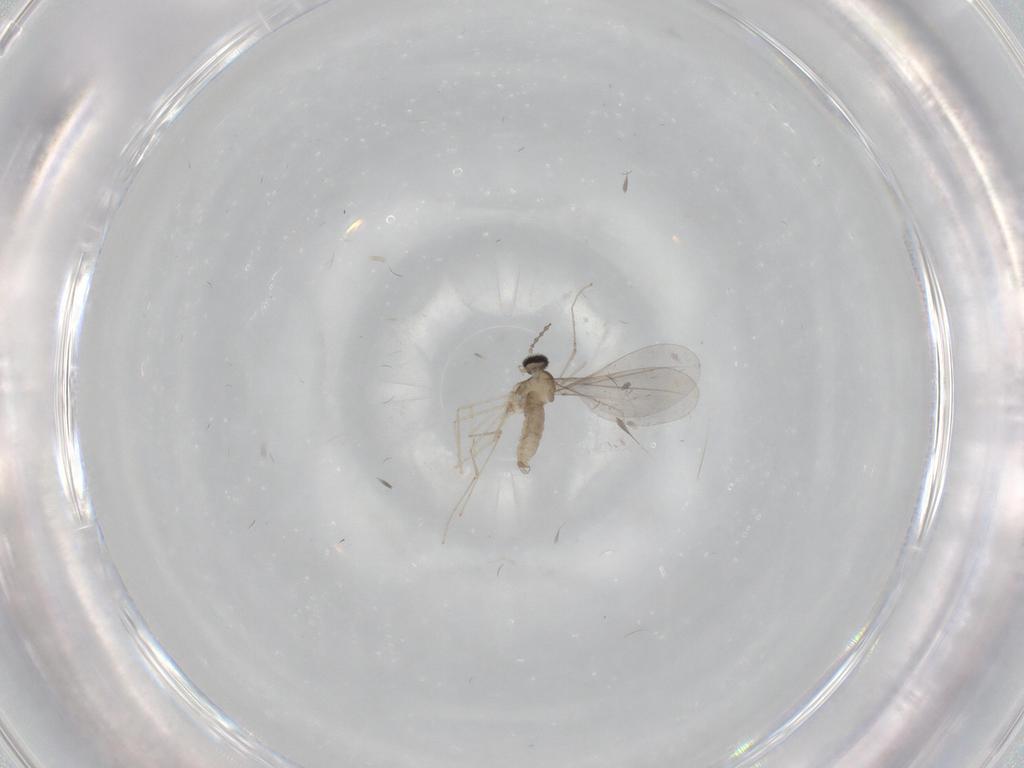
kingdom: Animalia
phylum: Arthropoda
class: Insecta
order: Diptera
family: Cecidomyiidae
